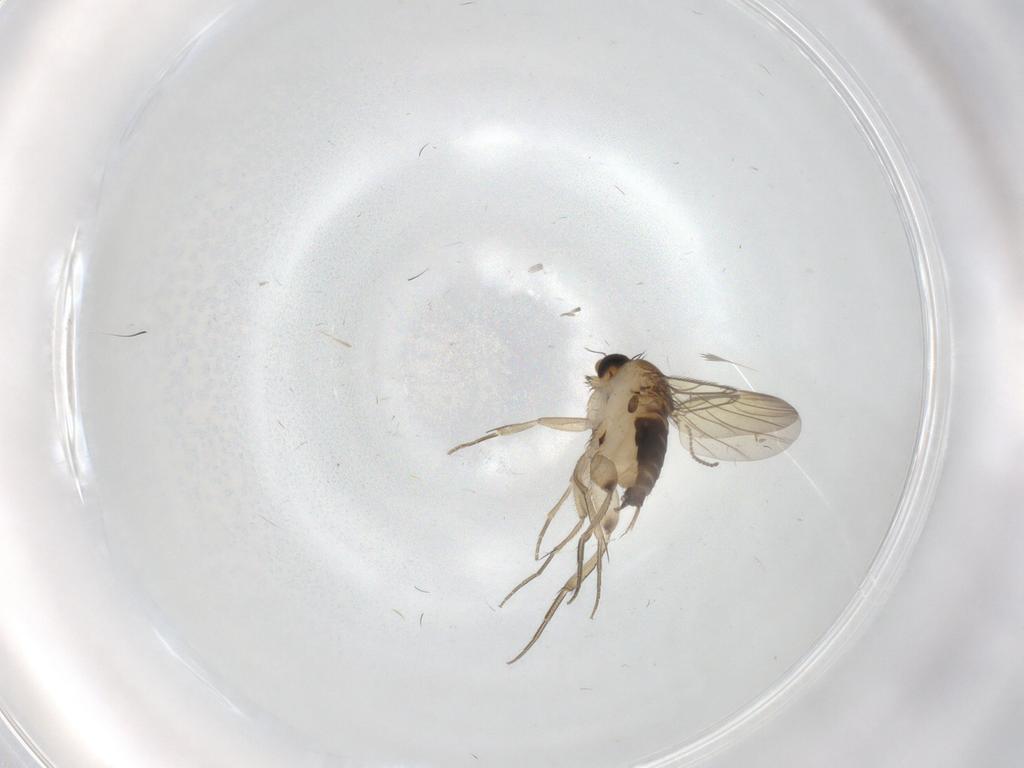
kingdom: Animalia
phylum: Arthropoda
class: Insecta
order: Diptera
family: Phoridae
